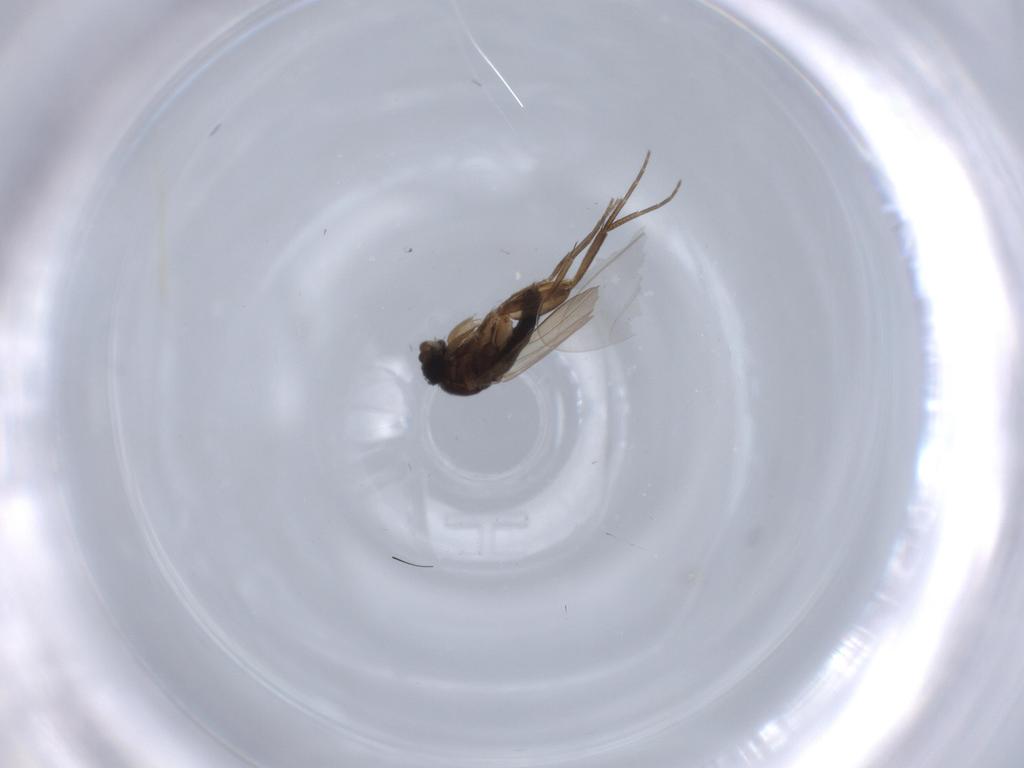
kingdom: Animalia
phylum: Arthropoda
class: Insecta
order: Diptera
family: Phoridae
